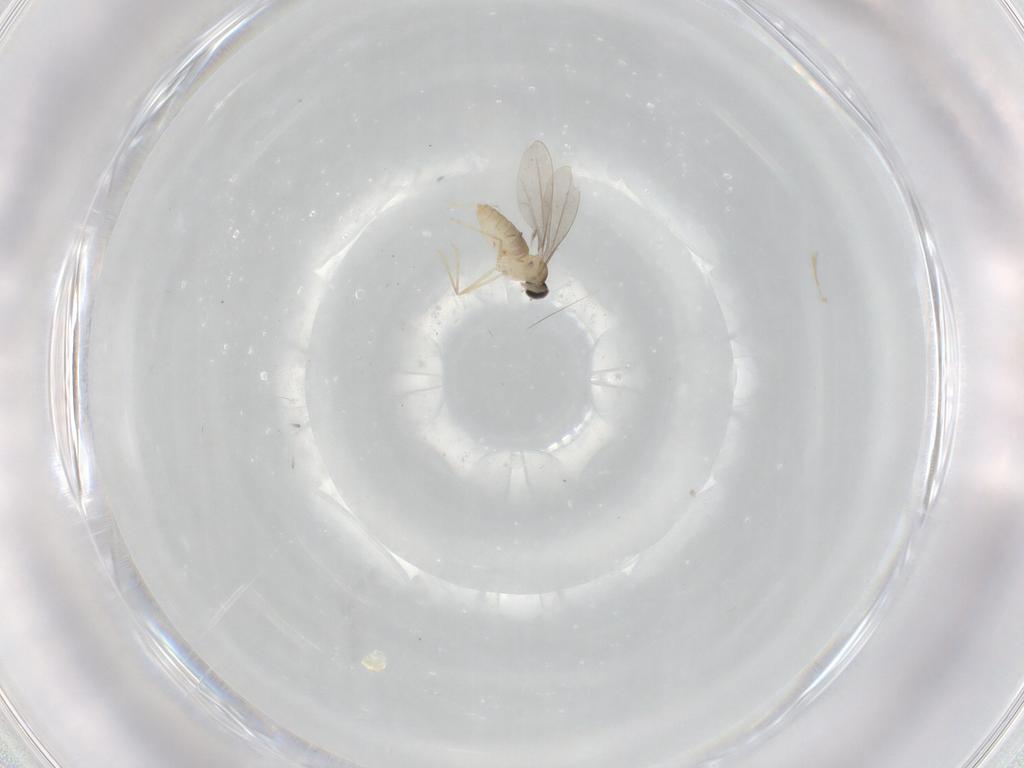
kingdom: Animalia
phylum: Arthropoda
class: Insecta
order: Diptera
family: Cecidomyiidae
